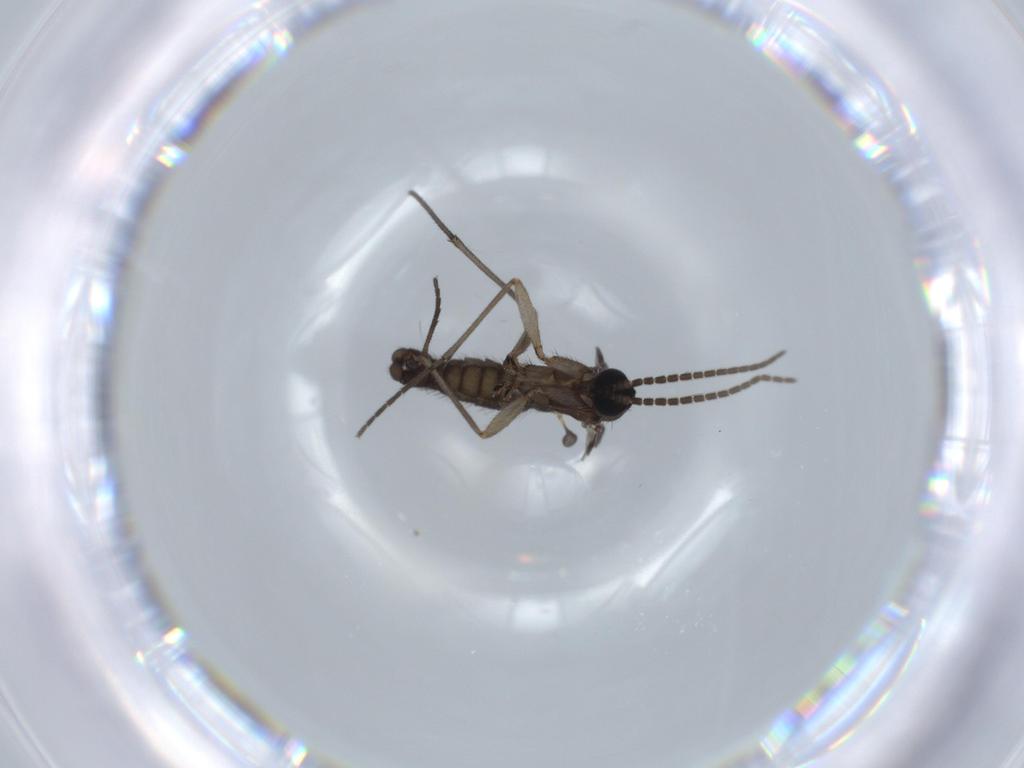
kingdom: Animalia
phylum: Arthropoda
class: Insecta
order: Diptera
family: Sciaridae
